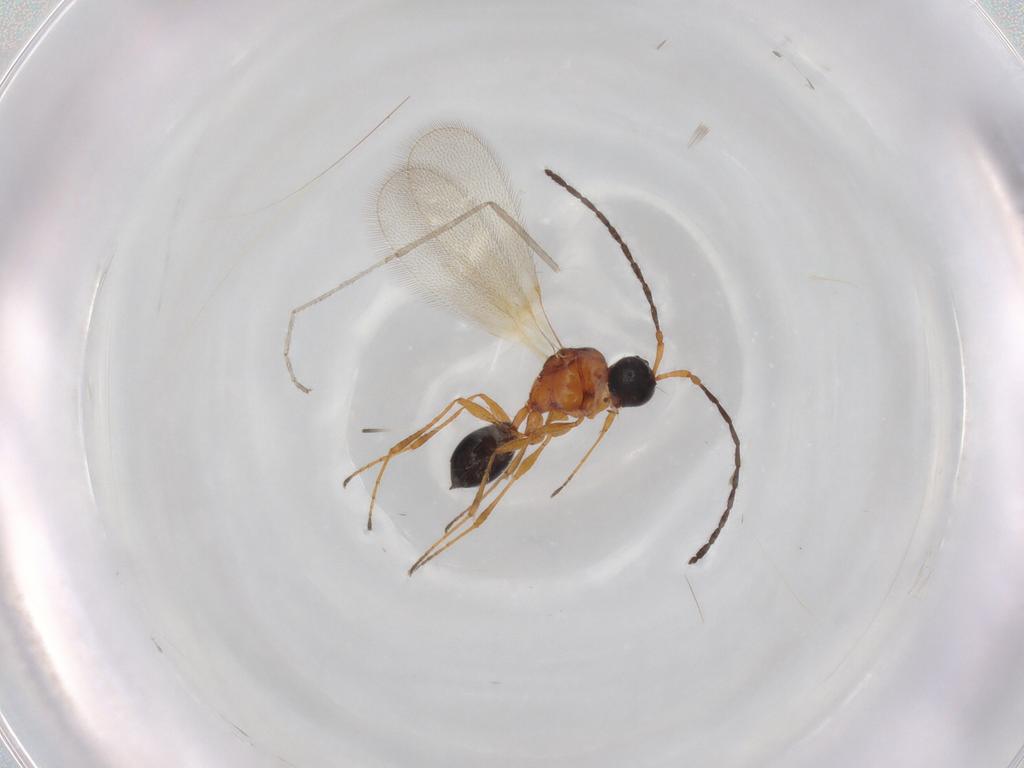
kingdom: Animalia
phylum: Arthropoda
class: Insecta
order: Hymenoptera
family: Diapriidae
